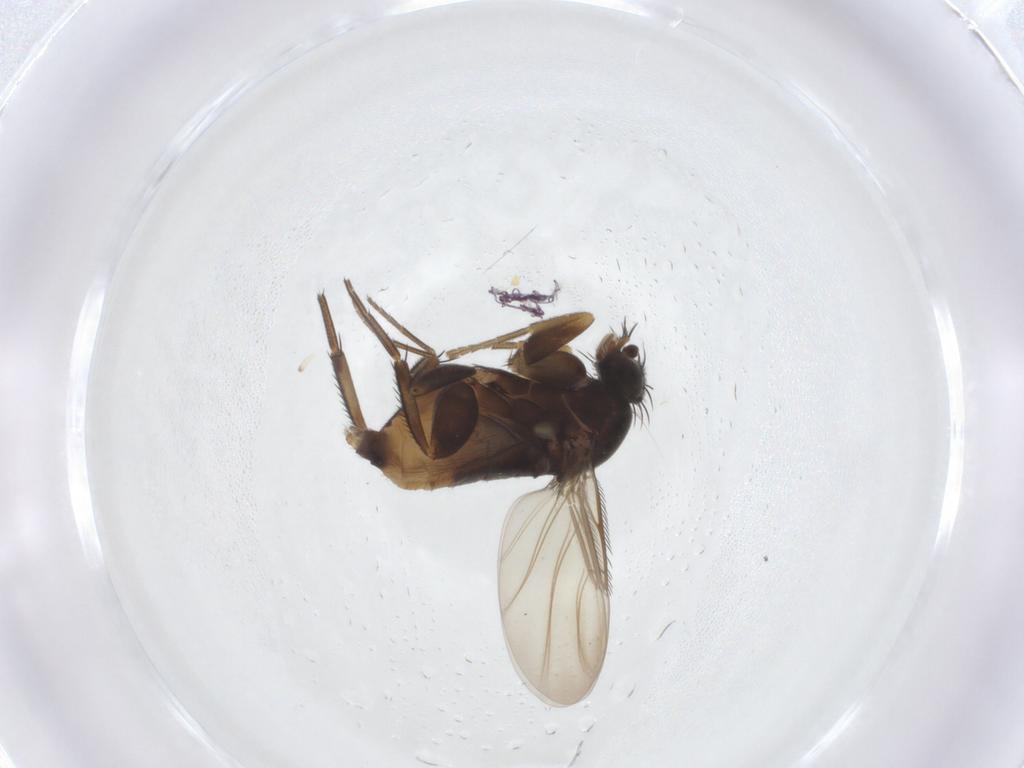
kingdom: Animalia
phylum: Arthropoda
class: Insecta
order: Diptera
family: Phoridae
